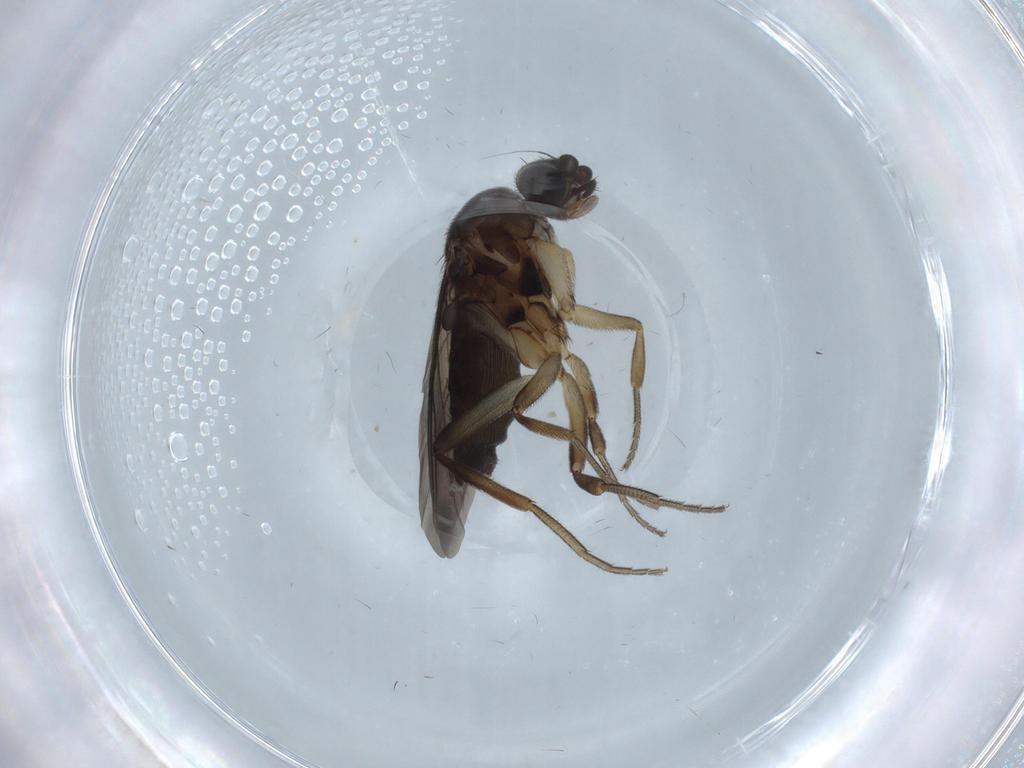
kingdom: Animalia
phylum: Arthropoda
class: Insecta
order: Diptera
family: Phoridae
